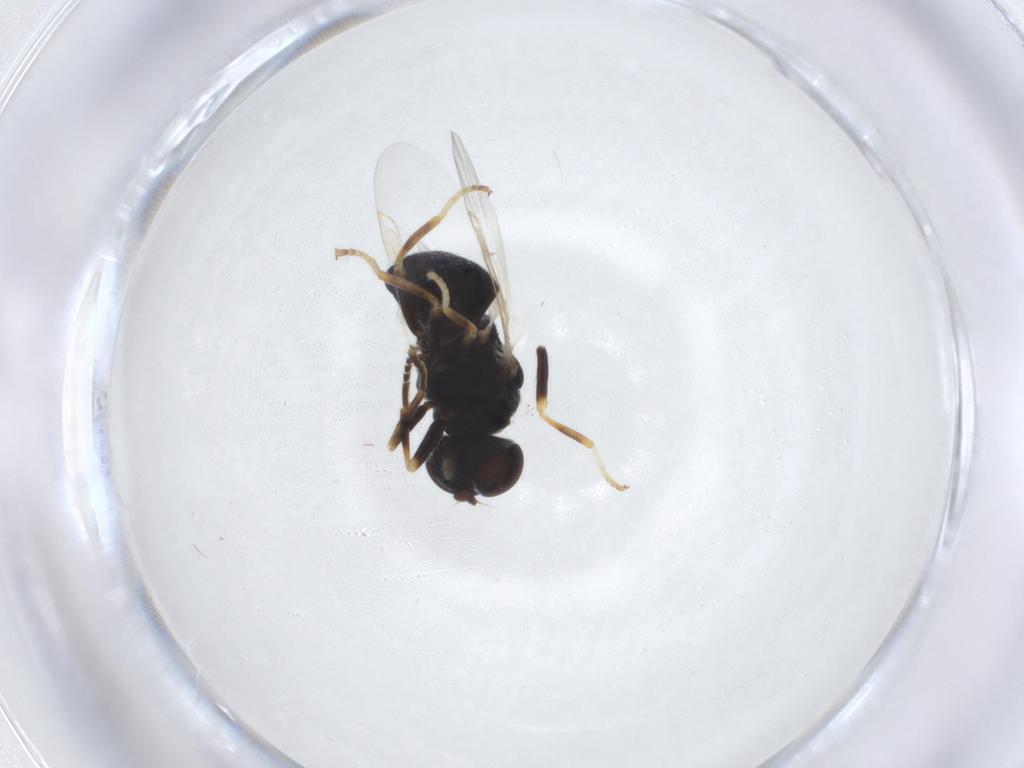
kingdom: Animalia
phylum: Arthropoda
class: Insecta
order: Diptera
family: Stratiomyidae
